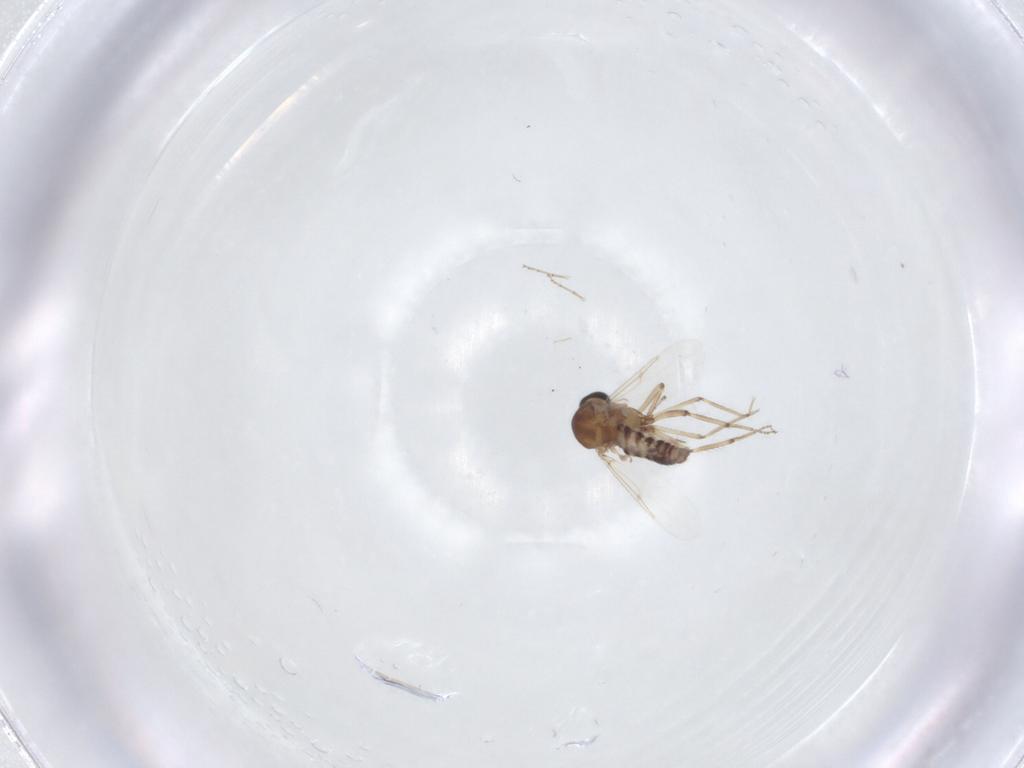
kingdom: Animalia
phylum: Arthropoda
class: Insecta
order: Diptera
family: Ceratopogonidae
